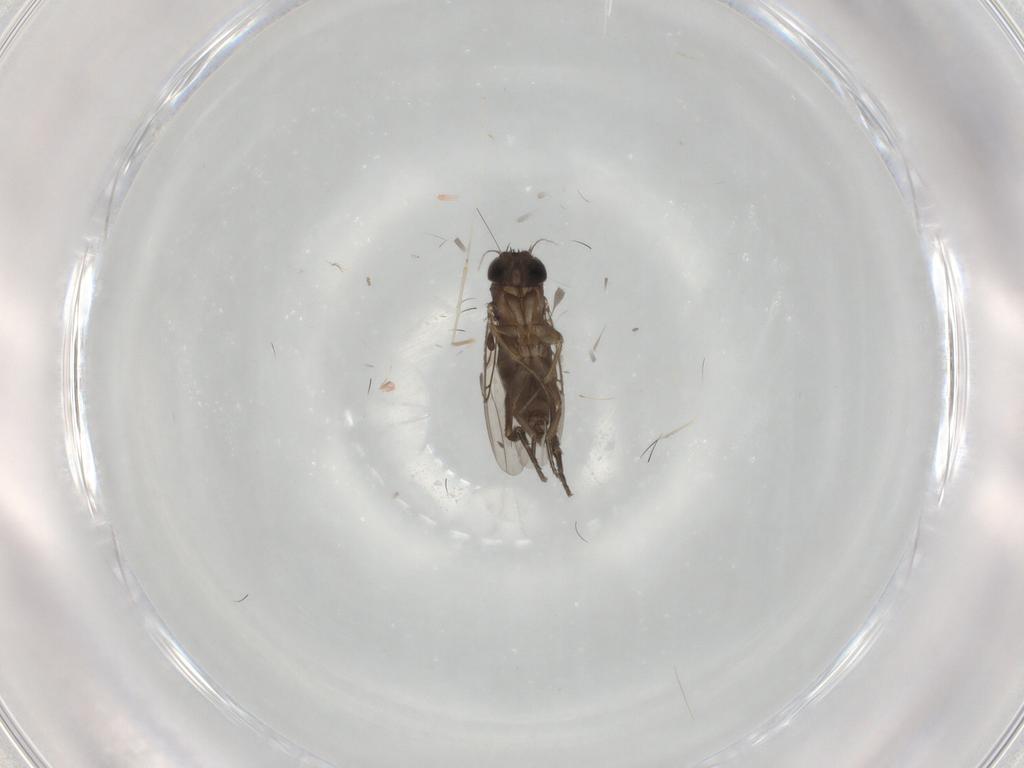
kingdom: Animalia
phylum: Arthropoda
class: Insecta
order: Diptera
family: Phoridae
